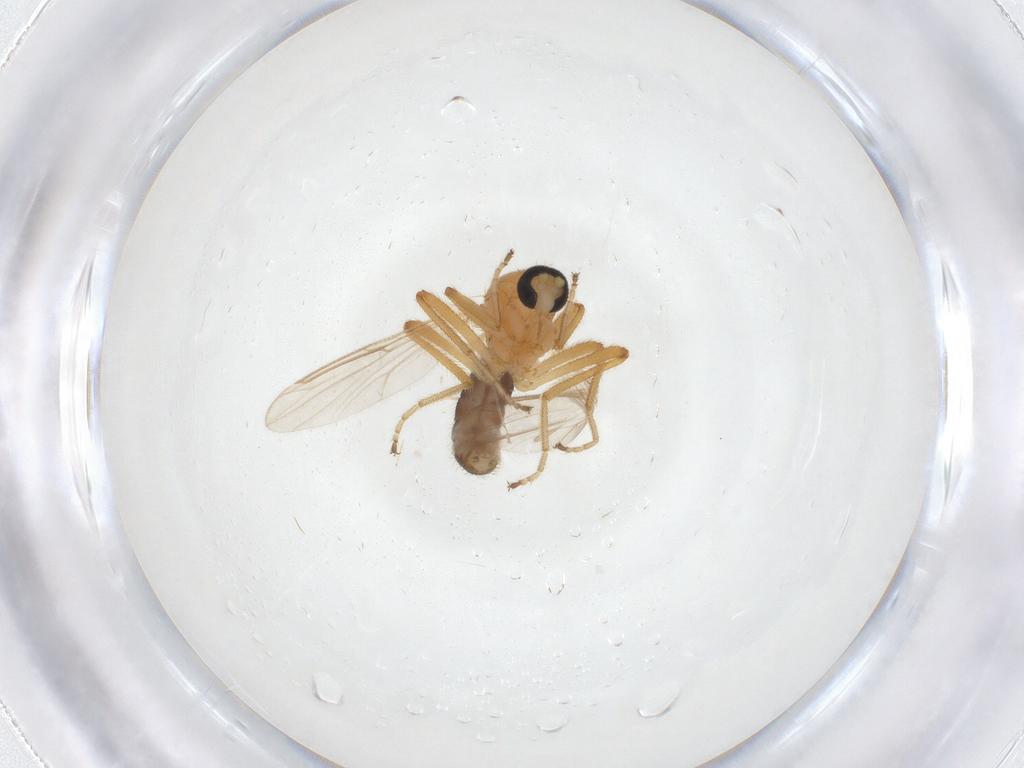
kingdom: Animalia
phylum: Arthropoda
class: Insecta
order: Diptera
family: Ceratopogonidae
